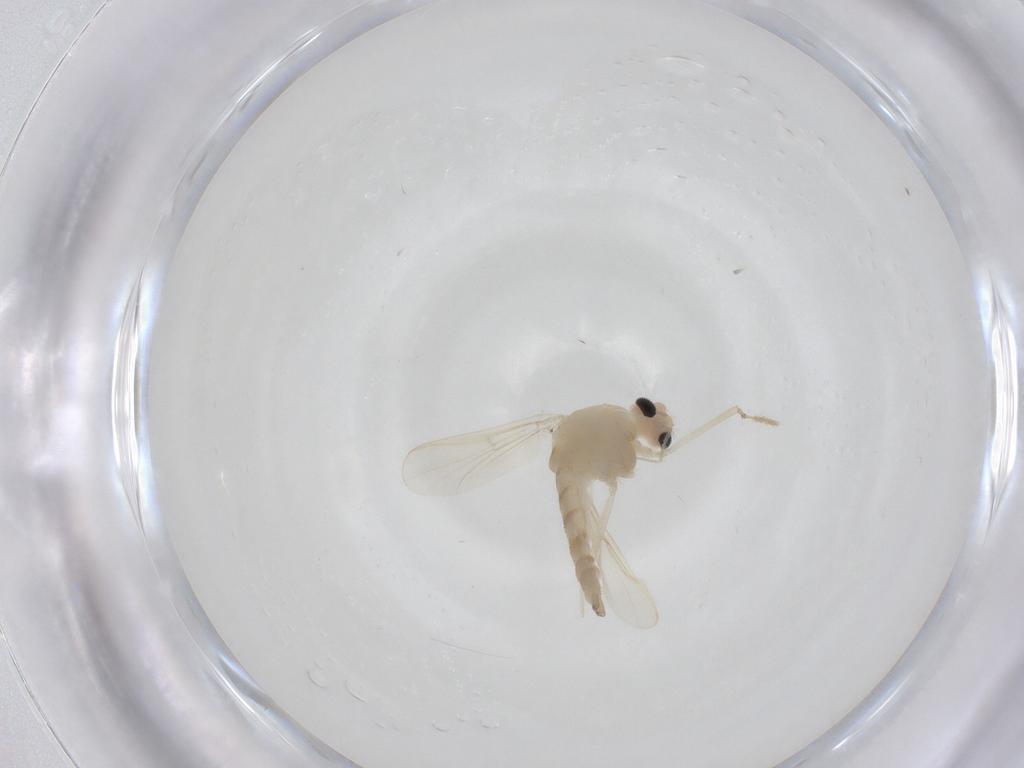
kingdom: Animalia
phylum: Arthropoda
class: Insecta
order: Diptera
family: Chironomidae
